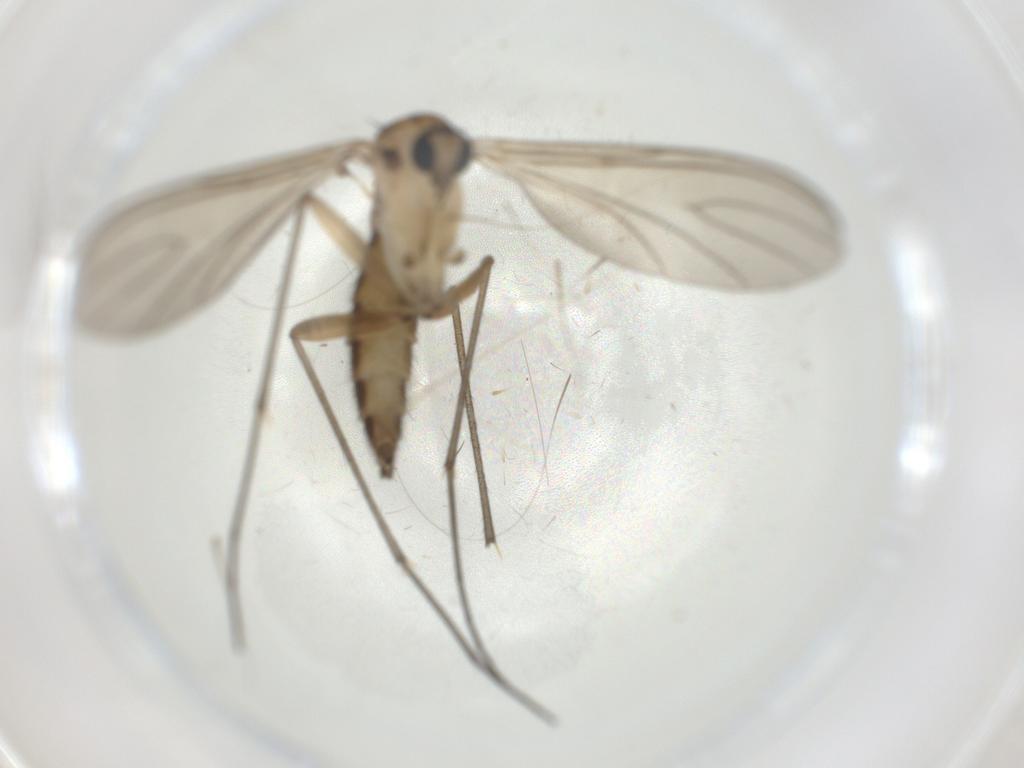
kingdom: Animalia
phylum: Arthropoda
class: Insecta
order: Diptera
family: Sciaridae
